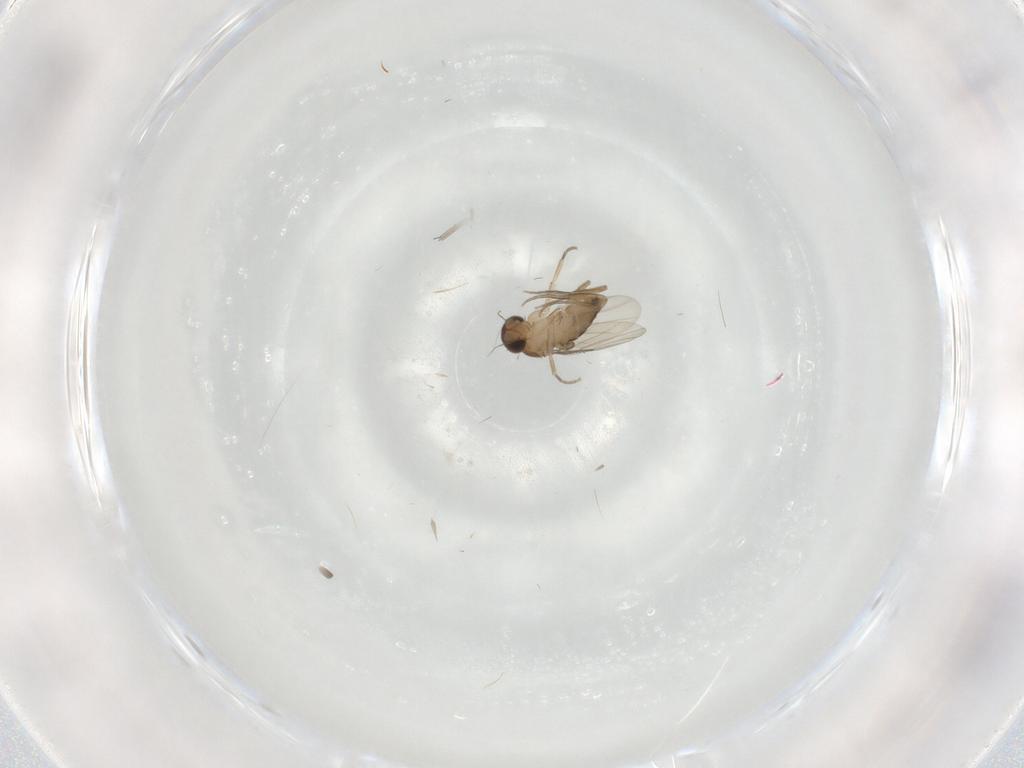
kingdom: Animalia
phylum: Arthropoda
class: Insecta
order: Diptera
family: Phoridae
